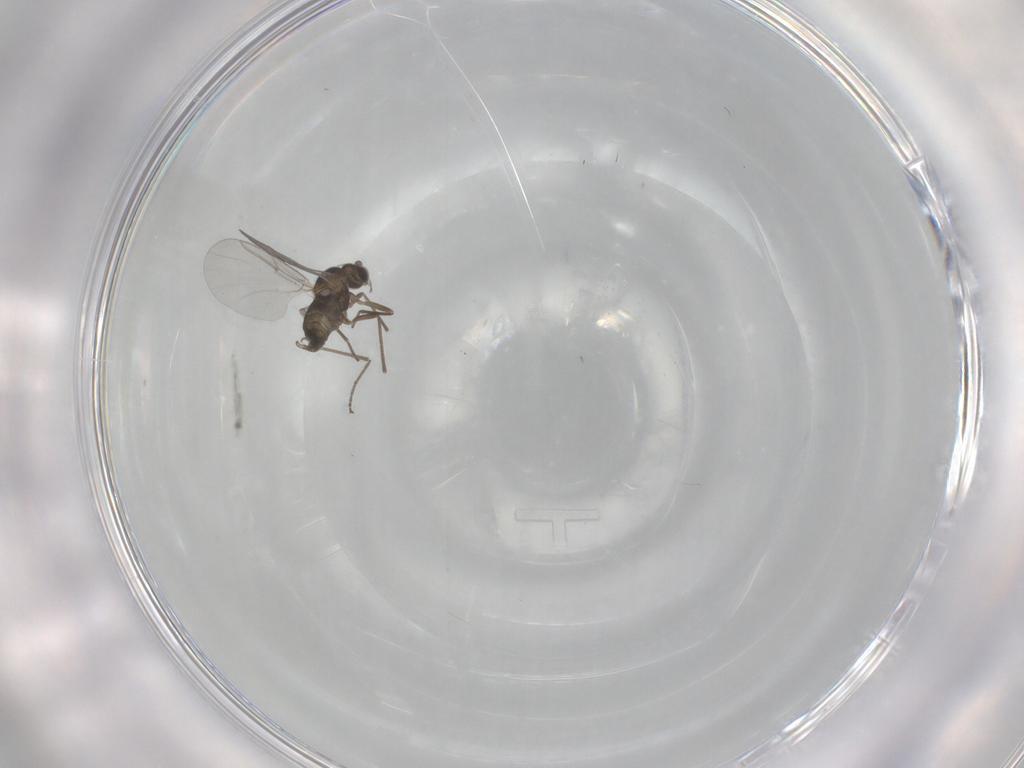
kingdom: Animalia
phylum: Arthropoda
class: Insecta
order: Diptera
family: Cecidomyiidae
